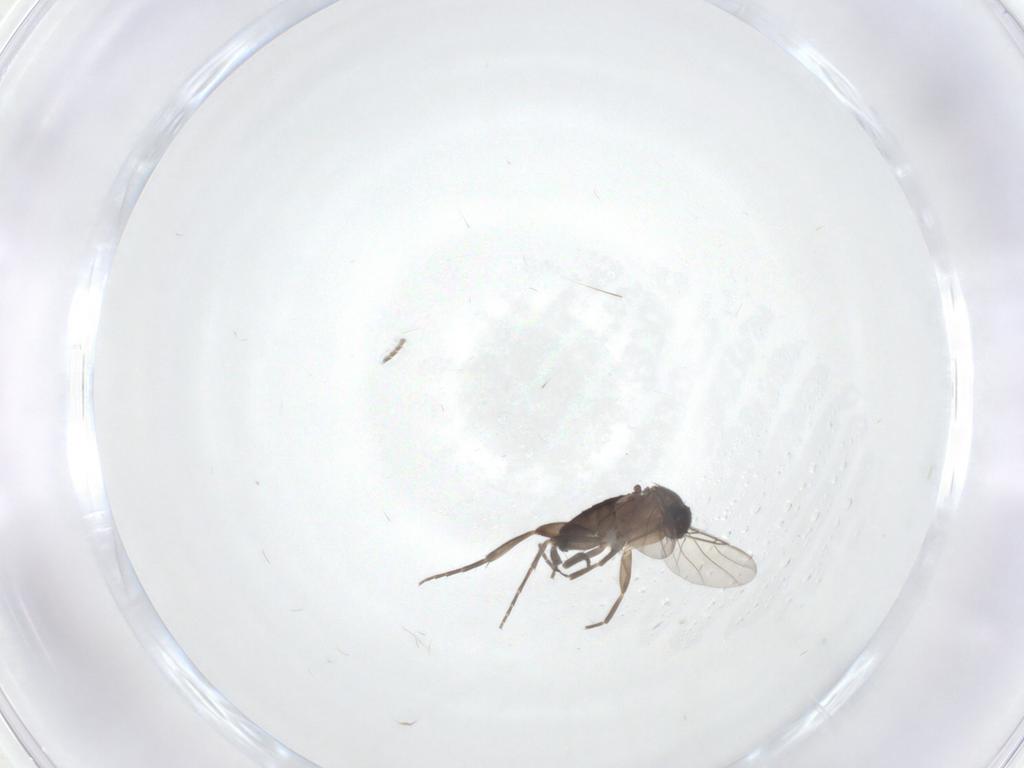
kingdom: Animalia
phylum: Arthropoda
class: Insecta
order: Diptera
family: Phoridae
